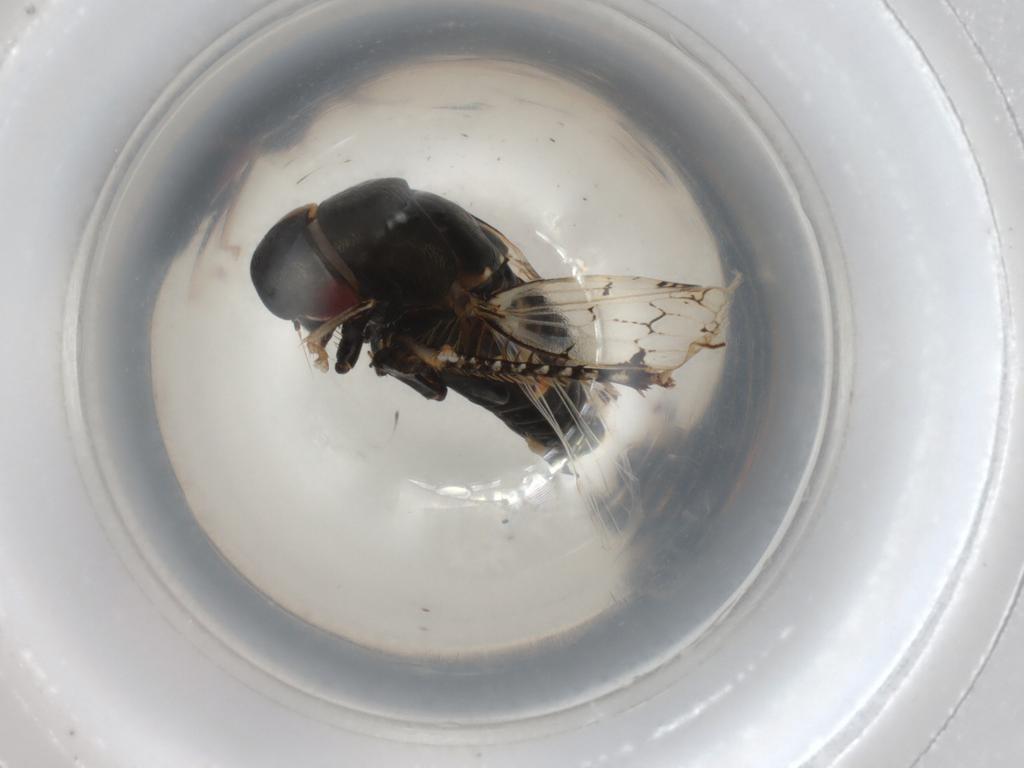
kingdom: Animalia
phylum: Arthropoda
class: Insecta
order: Hemiptera
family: Cicadellidae
